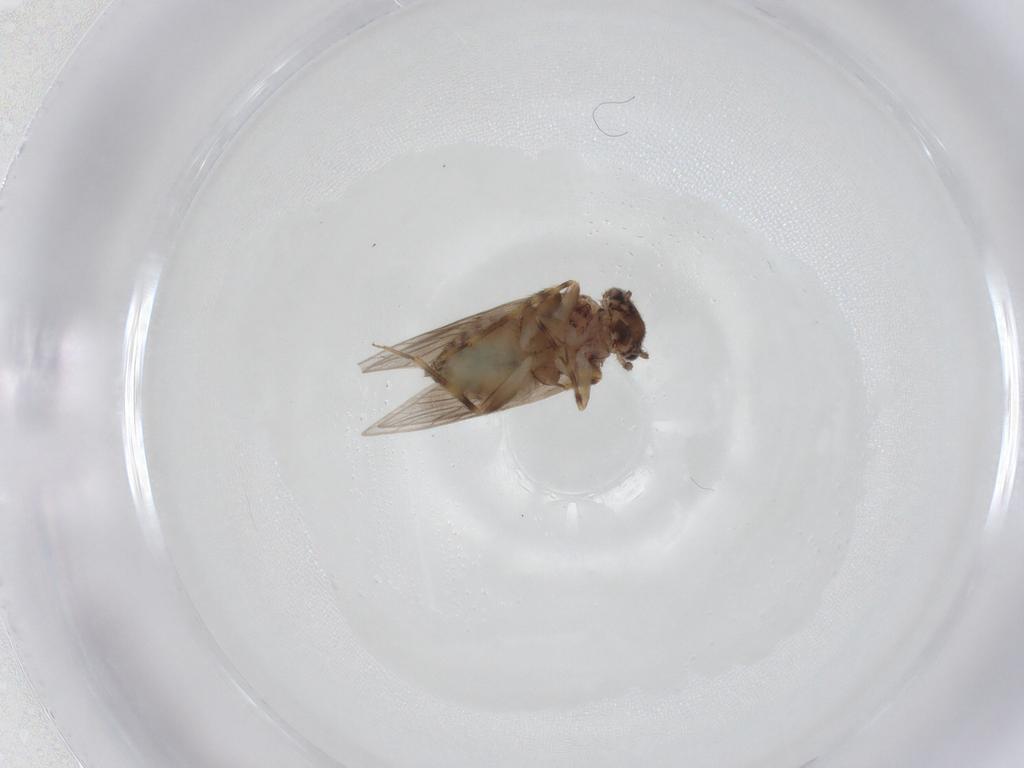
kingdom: Animalia
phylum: Arthropoda
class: Insecta
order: Psocodea
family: Lepidopsocidae
